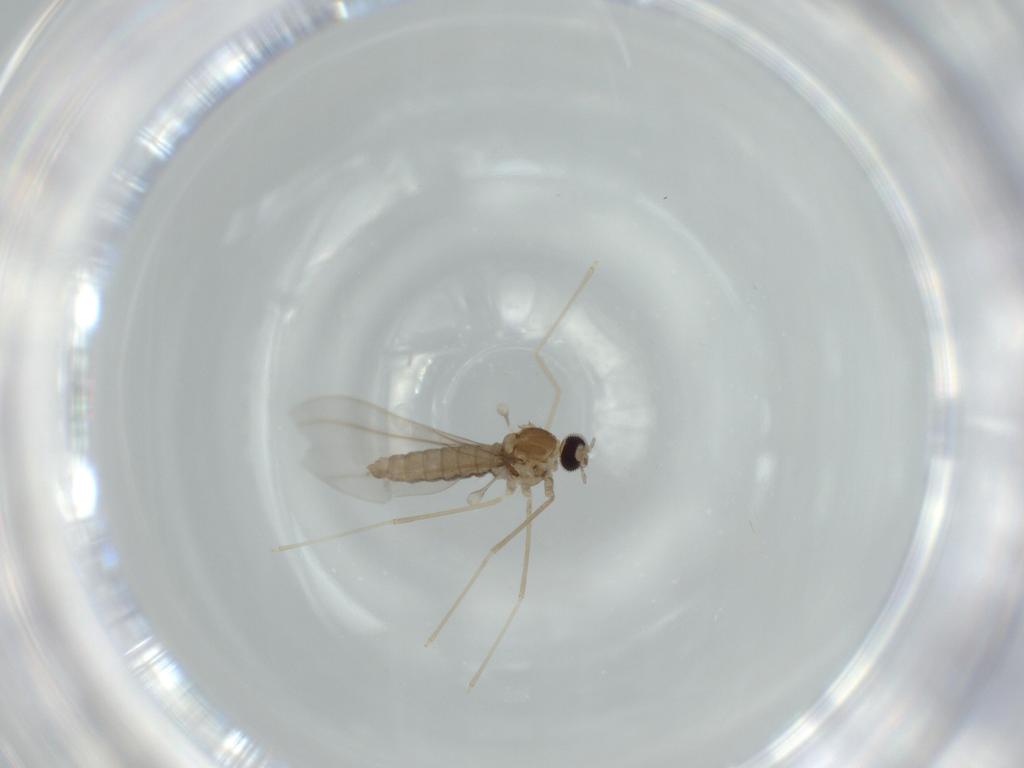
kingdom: Animalia
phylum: Arthropoda
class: Insecta
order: Diptera
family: Cecidomyiidae
